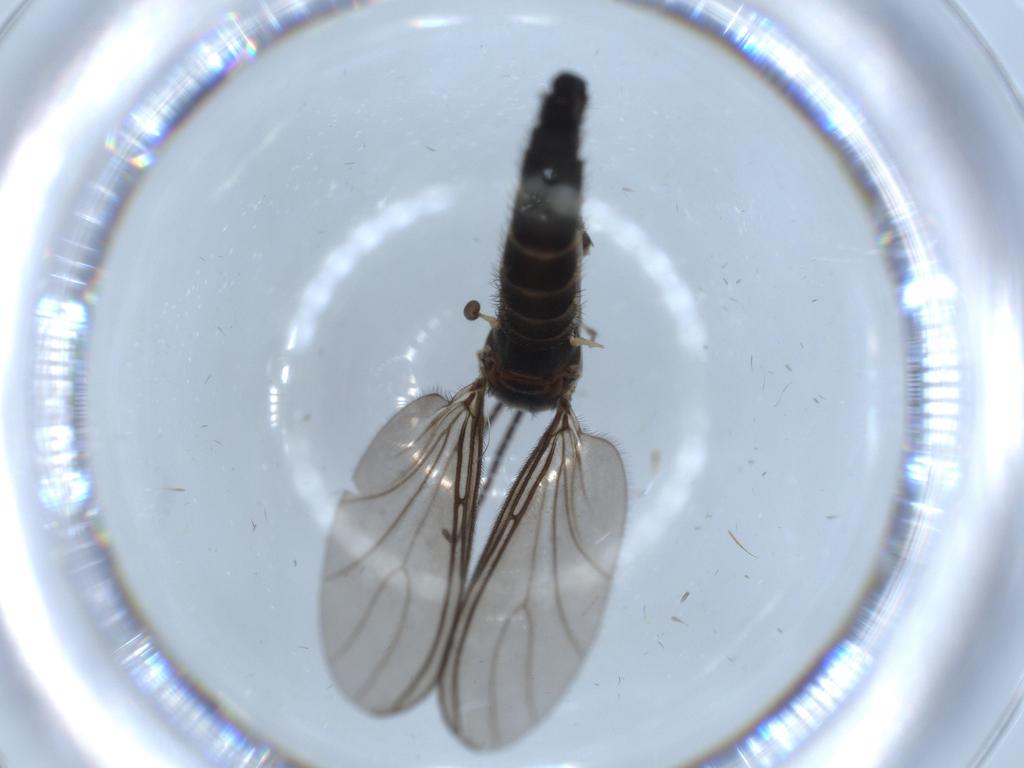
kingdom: Animalia
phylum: Arthropoda
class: Insecta
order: Diptera
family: Sciaridae
